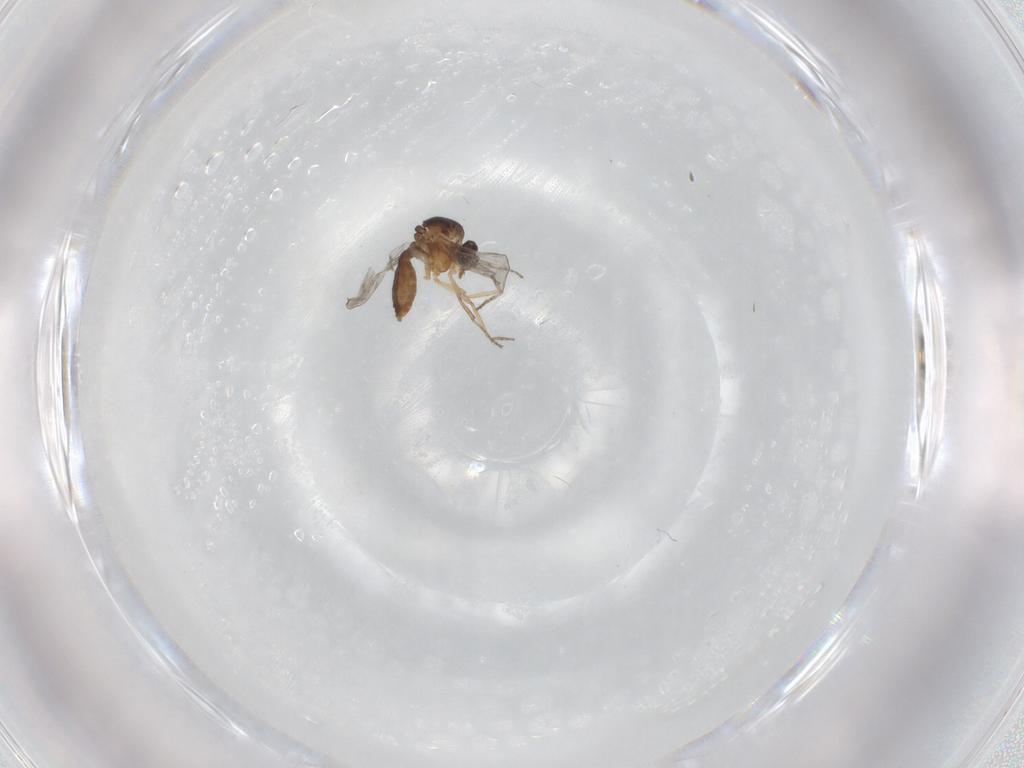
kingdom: Animalia
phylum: Arthropoda
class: Insecta
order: Diptera
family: Ceratopogonidae
